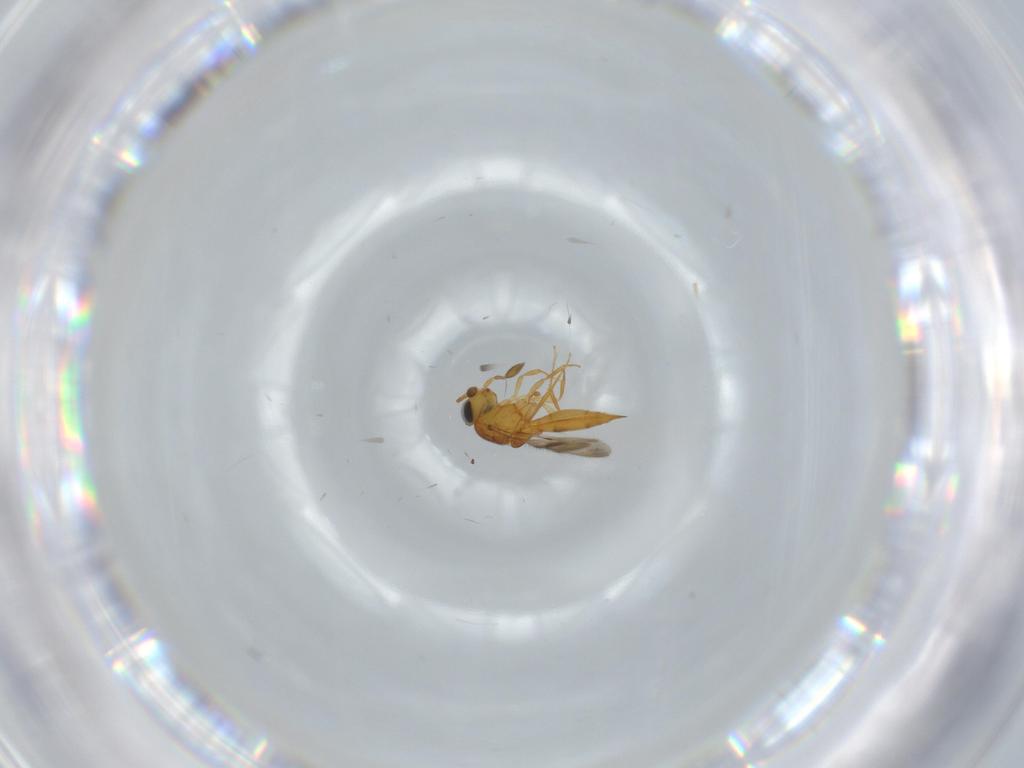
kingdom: Animalia
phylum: Arthropoda
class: Insecta
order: Hymenoptera
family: Scelionidae
